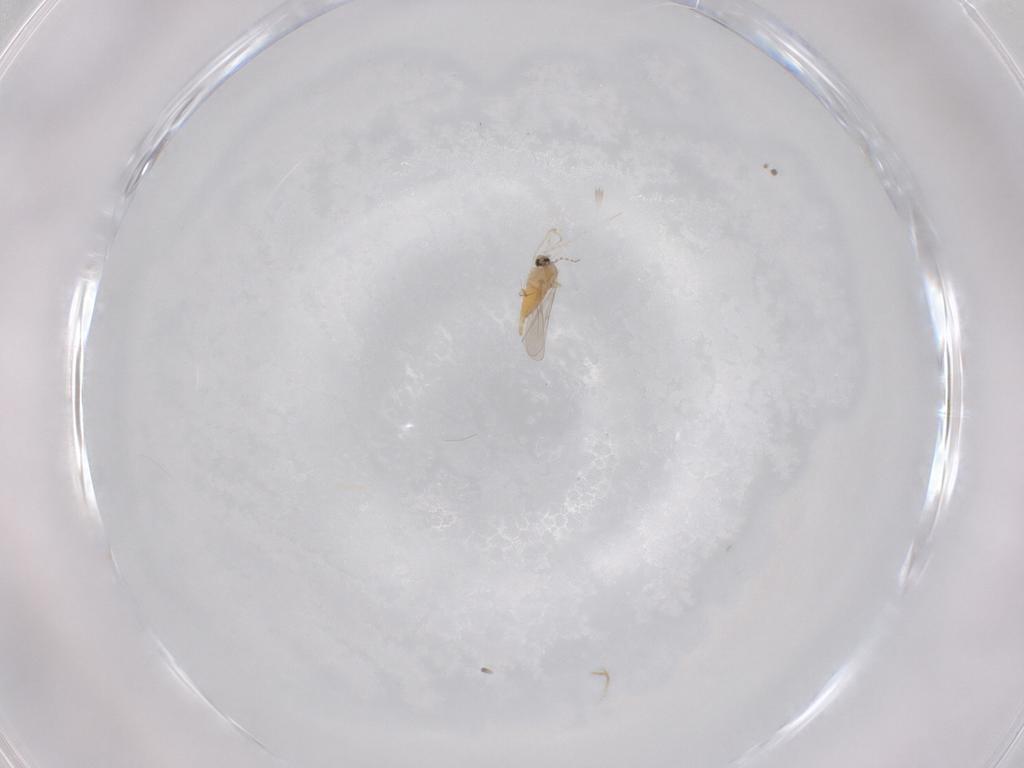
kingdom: Animalia
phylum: Arthropoda
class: Insecta
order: Diptera
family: Cecidomyiidae
